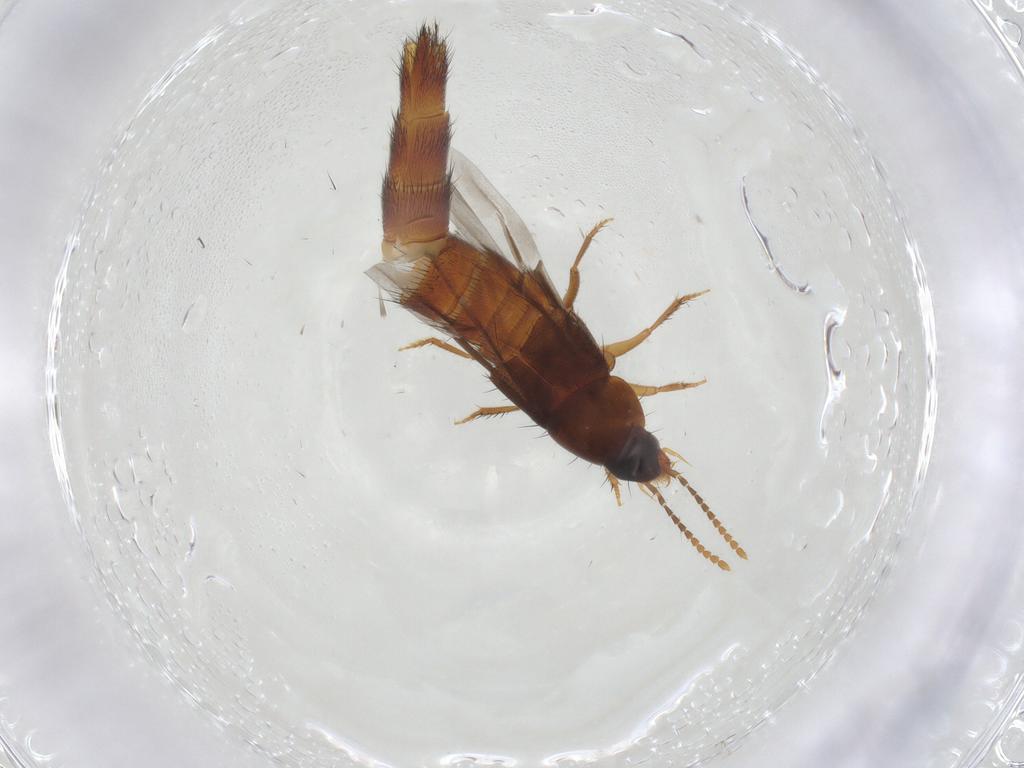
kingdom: Animalia
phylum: Arthropoda
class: Insecta
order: Coleoptera
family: Staphylinidae
